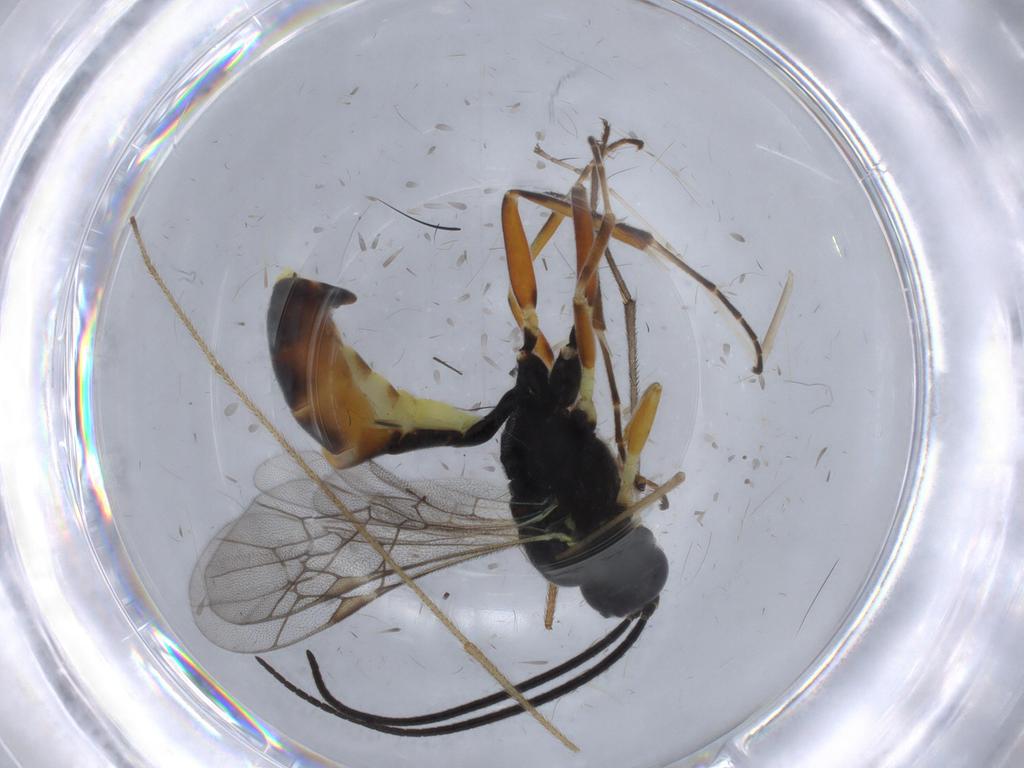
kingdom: Animalia
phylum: Arthropoda
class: Insecta
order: Hymenoptera
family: Ichneumonidae
